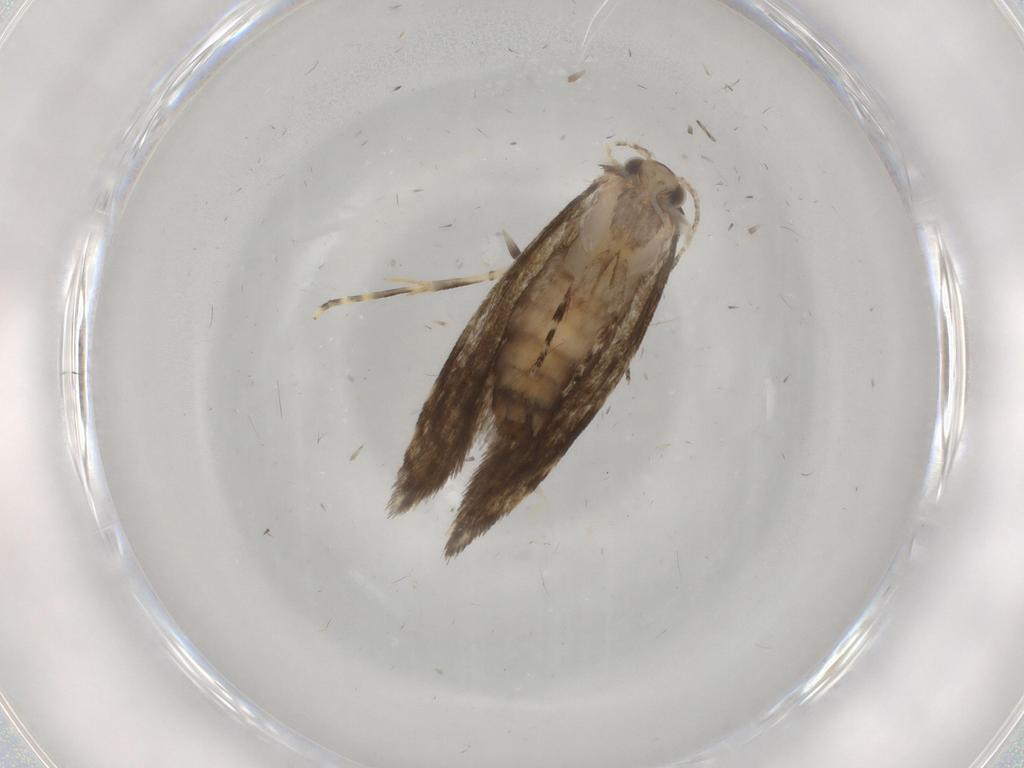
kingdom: Animalia
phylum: Arthropoda
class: Insecta
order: Lepidoptera
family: Tineidae
